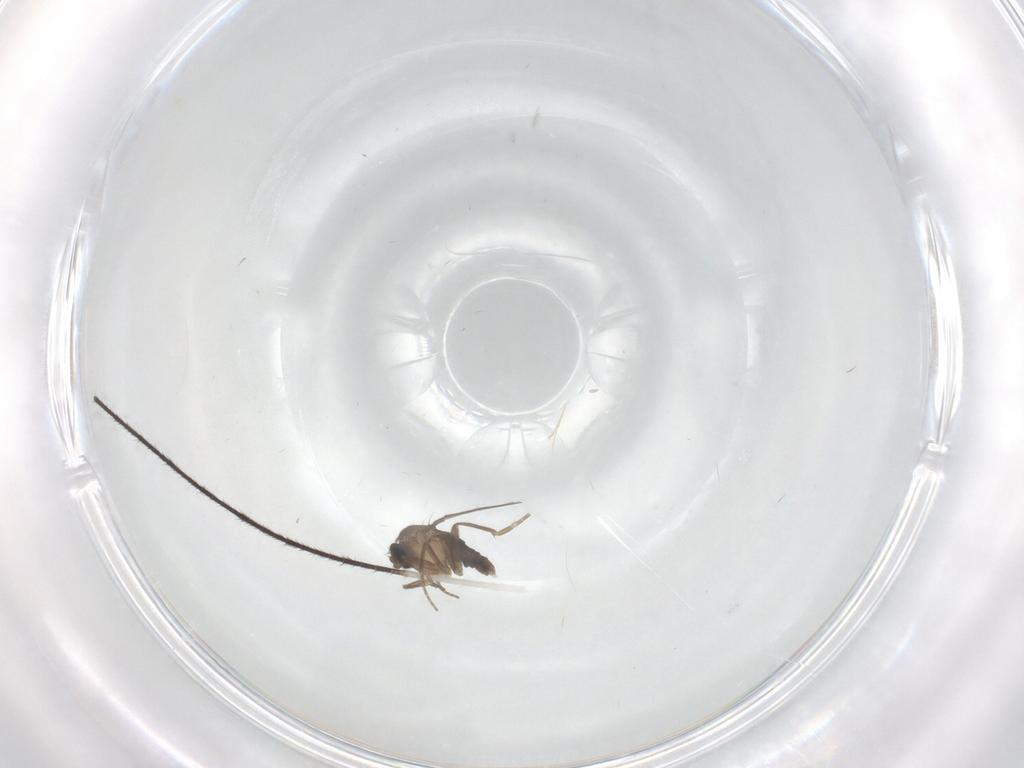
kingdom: Animalia
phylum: Arthropoda
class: Insecta
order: Diptera
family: Phoridae
